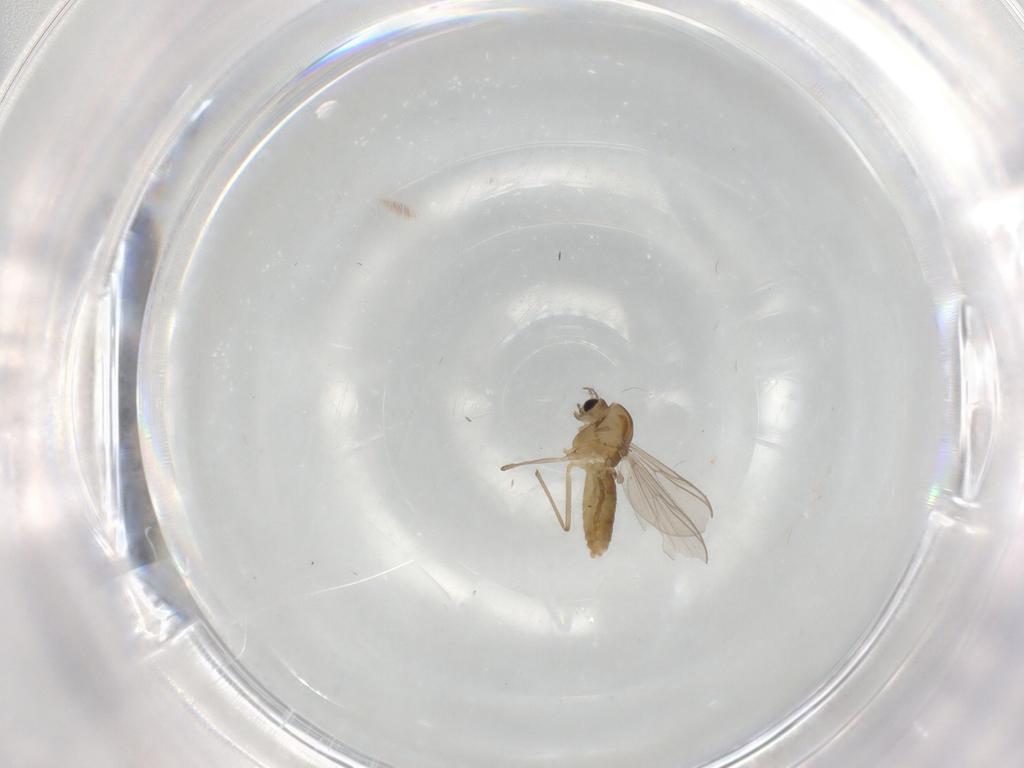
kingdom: Animalia
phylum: Arthropoda
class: Insecta
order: Diptera
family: Chironomidae
